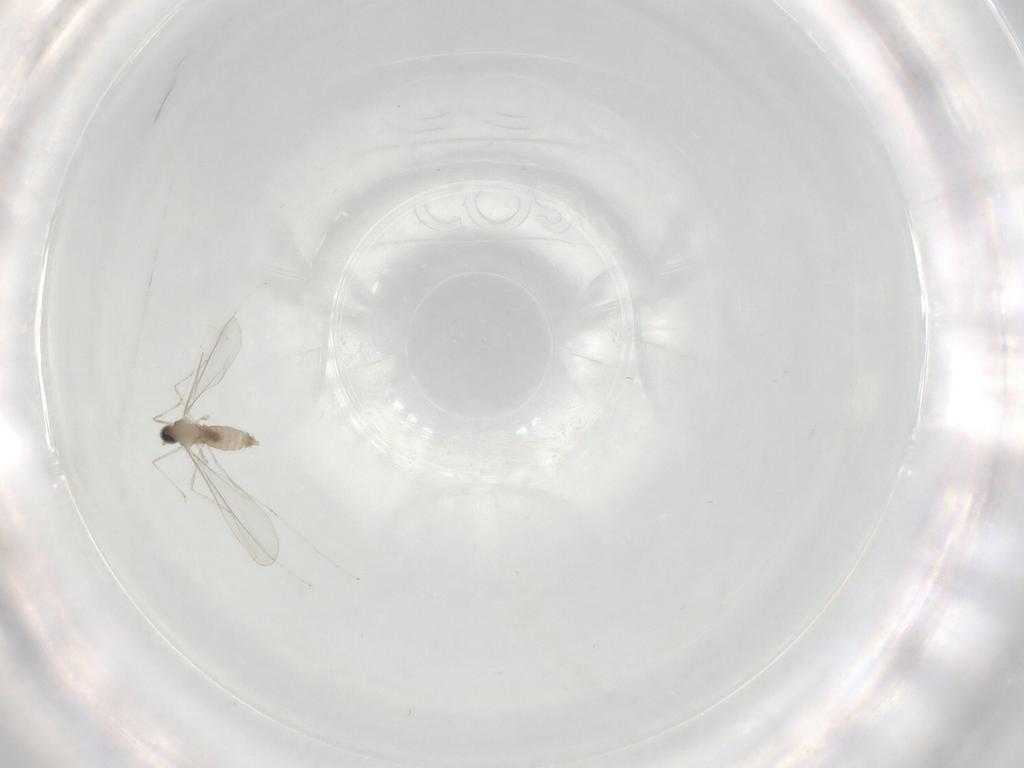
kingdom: Animalia
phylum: Arthropoda
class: Insecta
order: Diptera
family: Cecidomyiidae
